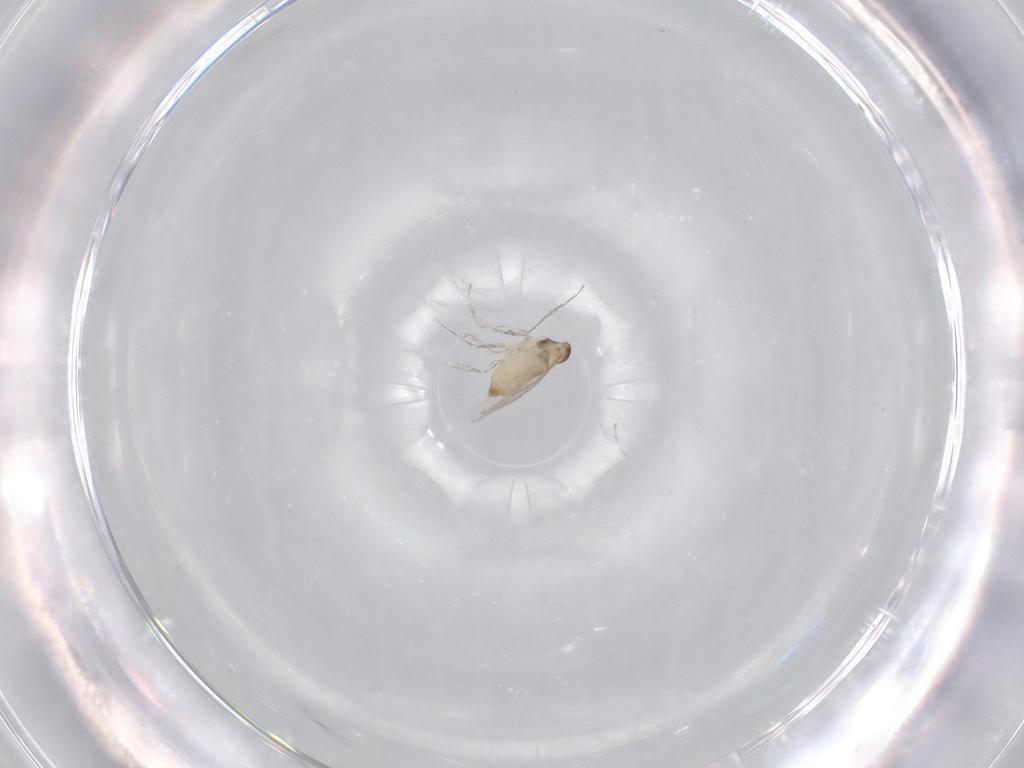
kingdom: Animalia
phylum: Arthropoda
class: Insecta
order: Diptera
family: Cecidomyiidae
